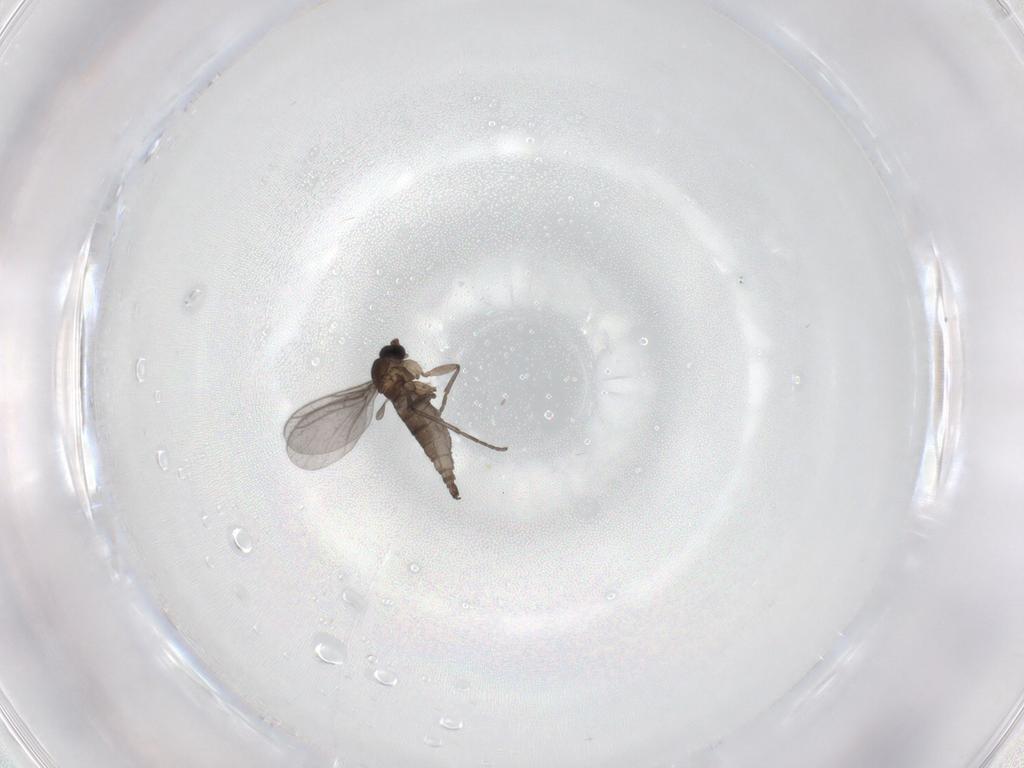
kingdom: Animalia
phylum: Arthropoda
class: Insecta
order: Diptera
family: Sciaridae
